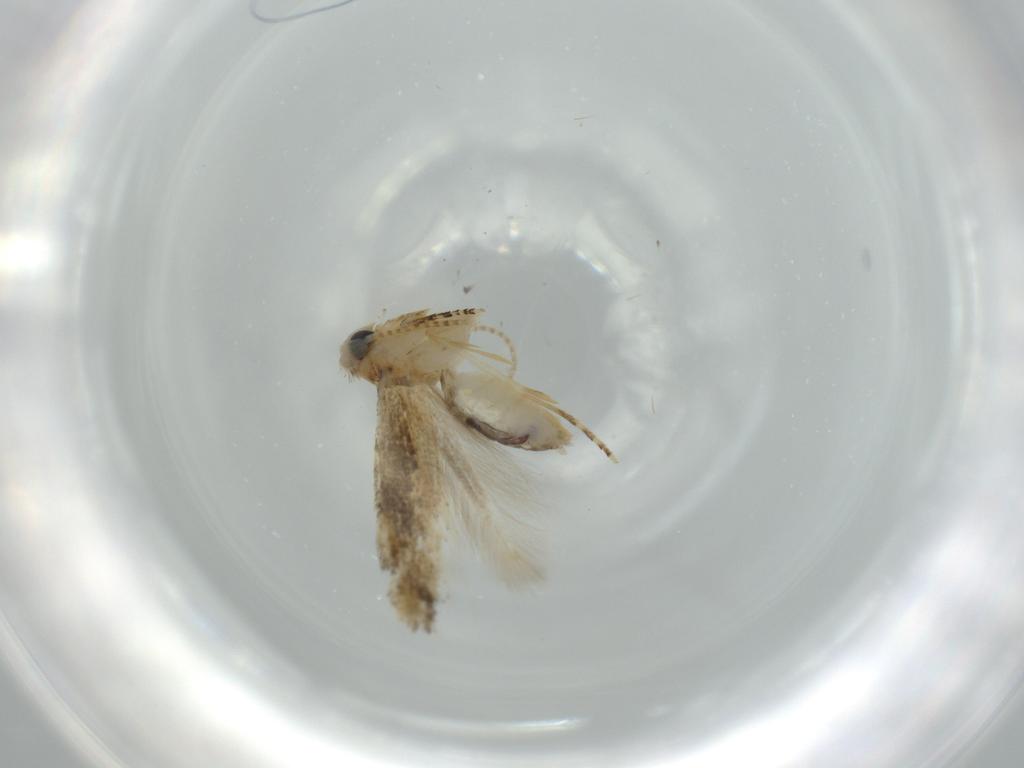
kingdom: Animalia
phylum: Arthropoda
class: Insecta
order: Lepidoptera
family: Bucculatricidae
